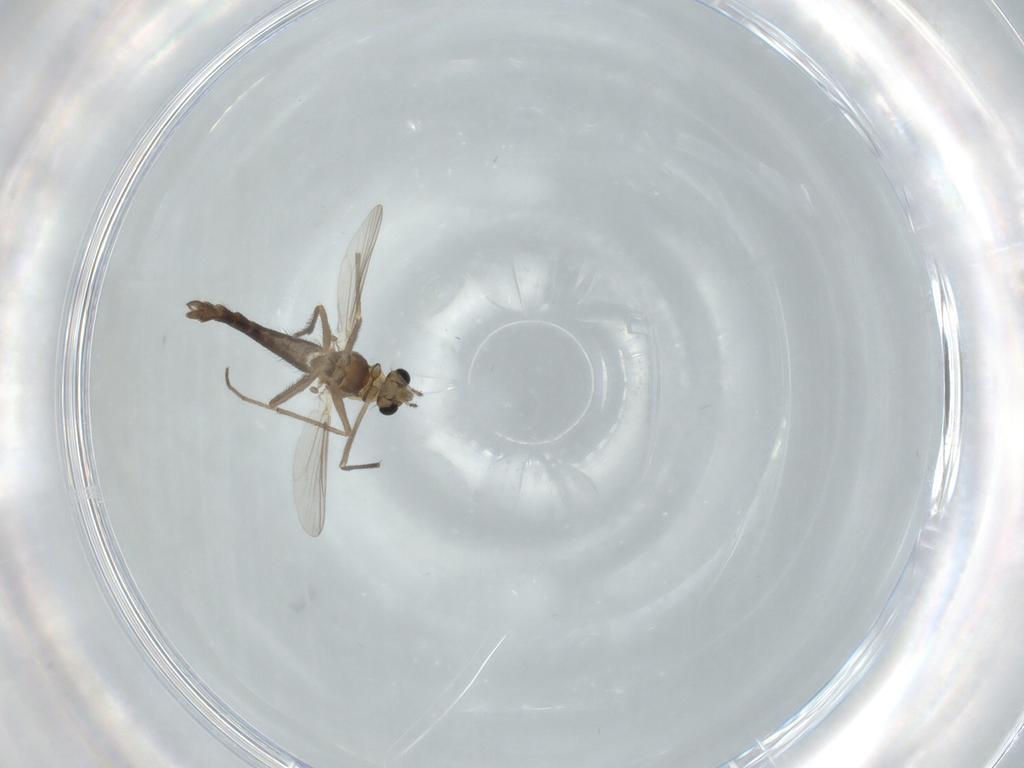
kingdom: Animalia
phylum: Arthropoda
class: Insecta
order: Diptera
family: Chironomidae
